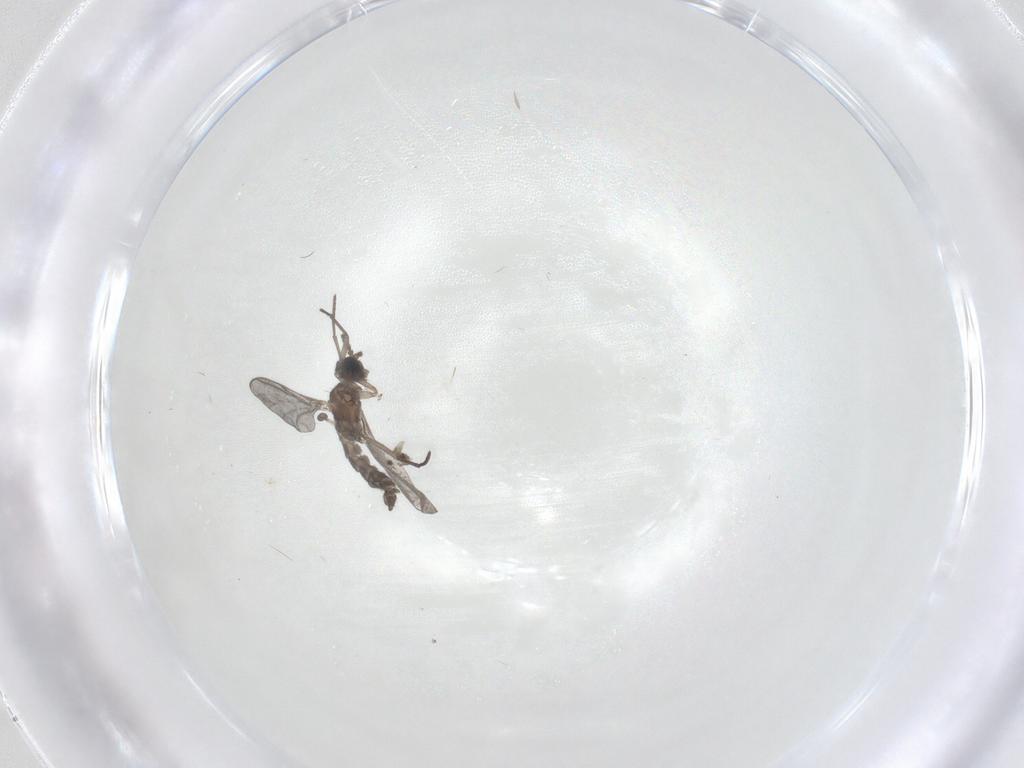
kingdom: Animalia
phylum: Arthropoda
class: Insecta
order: Diptera
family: Sciaridae
